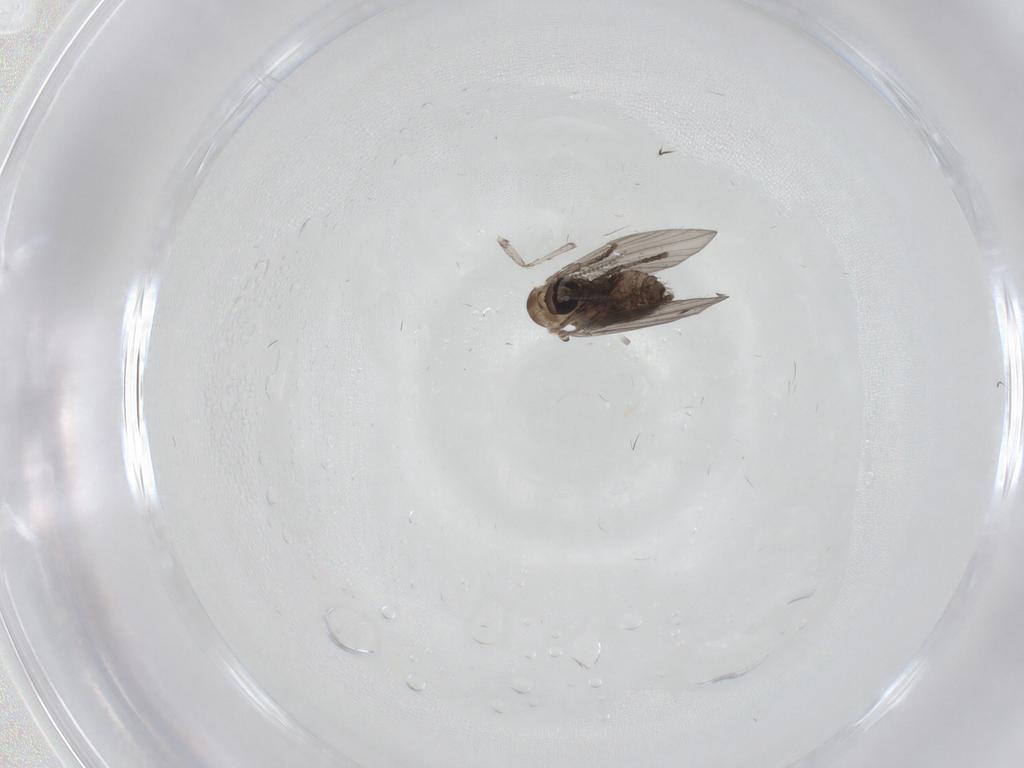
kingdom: Animalia
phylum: Arthropoda
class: Insecta
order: Diptera
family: Psychodidae
